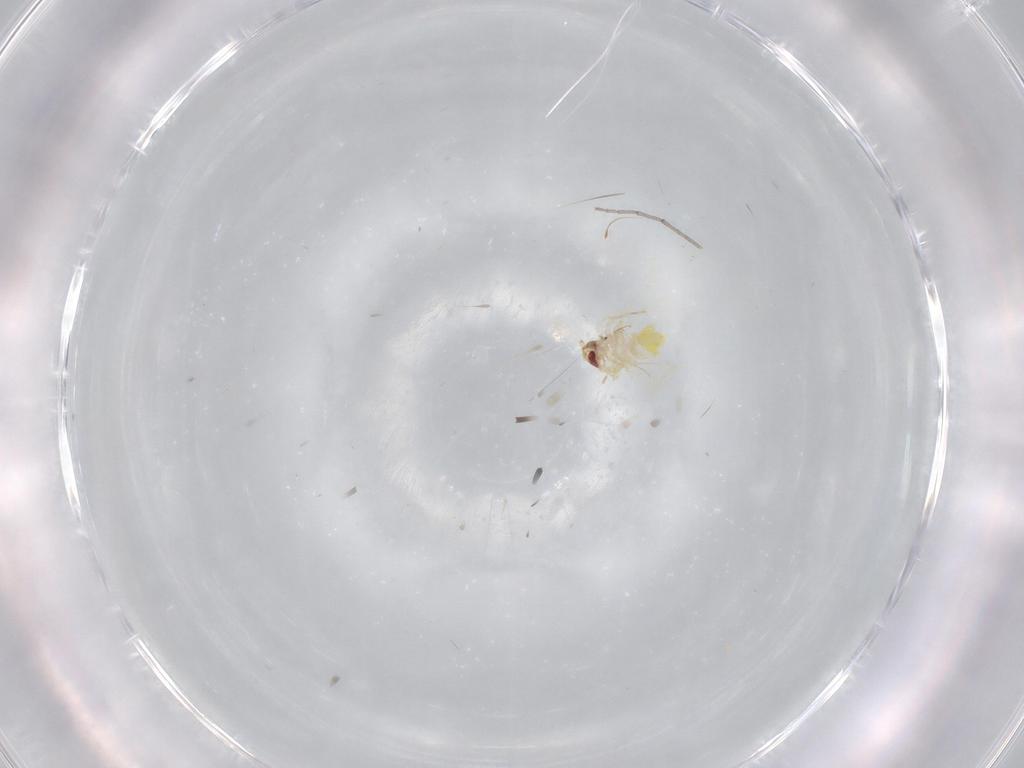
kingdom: Animalia
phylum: Arthropoda
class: Insecta
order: Hemiptera
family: Aleyrodidae
